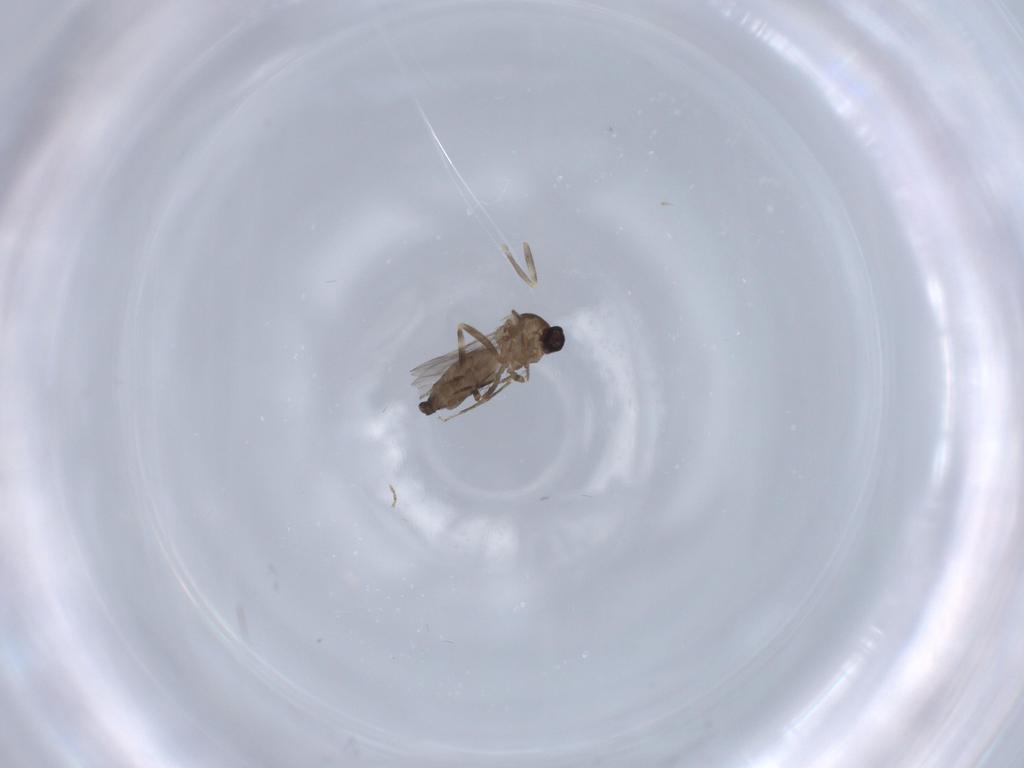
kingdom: Animalia
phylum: Arthropoda
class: Insecta
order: Diptera
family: Ceratopogonidae
